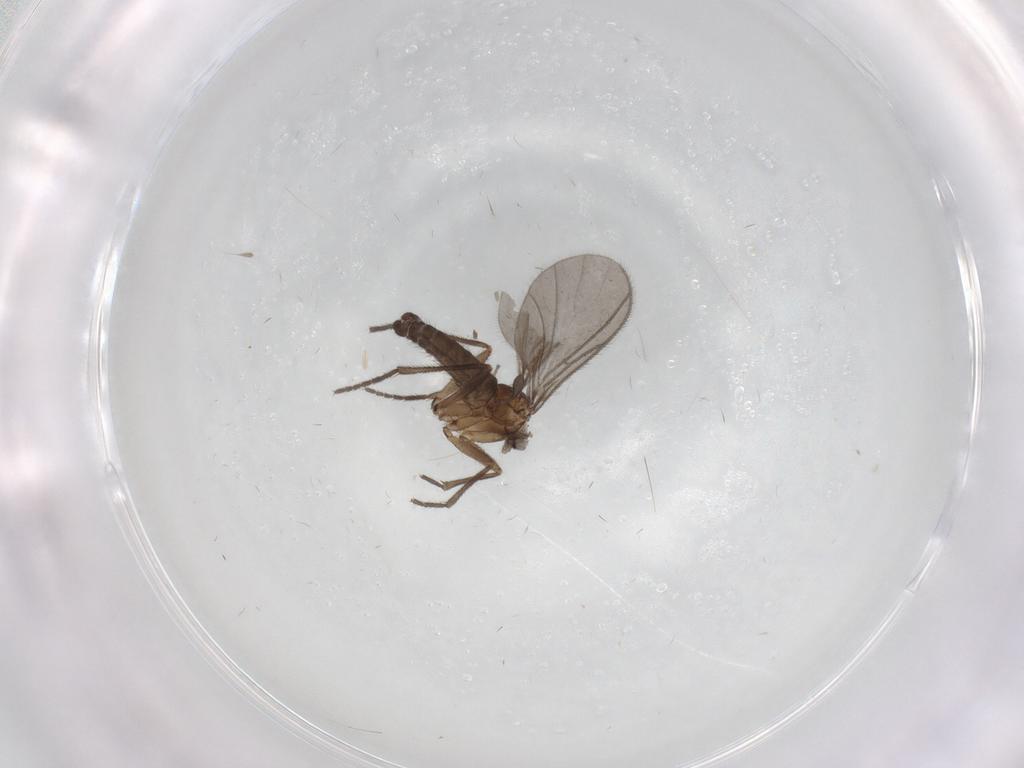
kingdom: Animalia
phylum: Arthropoda
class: Insecta
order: Diptera
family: Sciaridae
